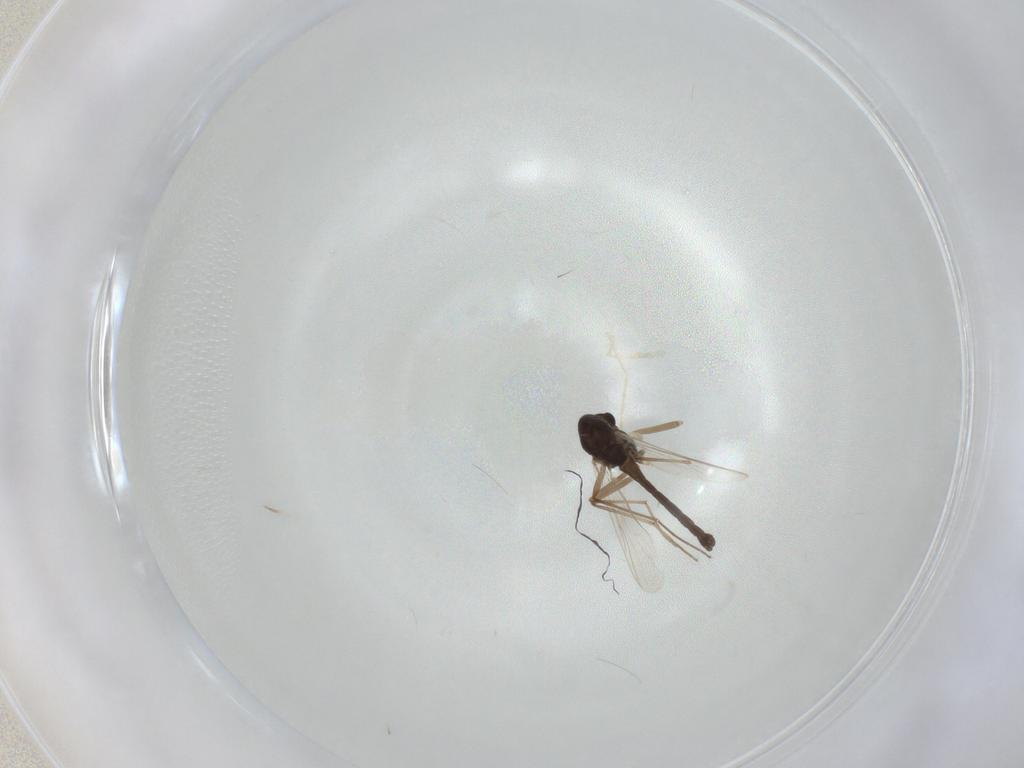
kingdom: Animalia
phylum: Arthropoda
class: Insecta
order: Diptera
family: Chironomidae
